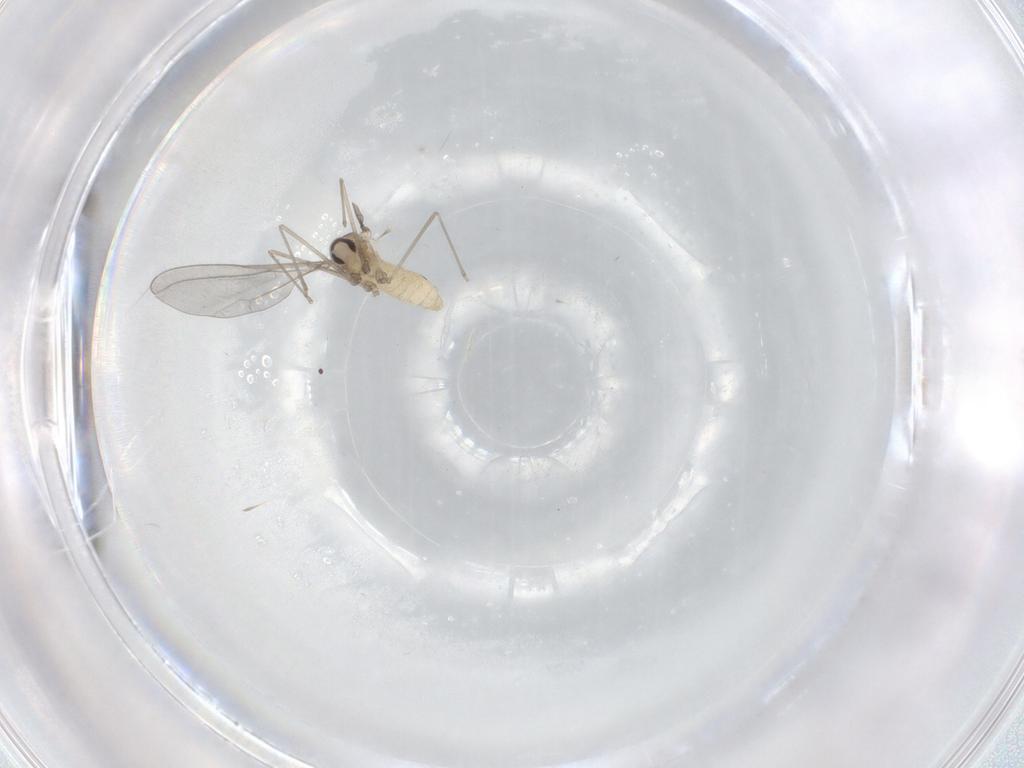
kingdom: Animalia
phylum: Arthropoda
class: Insecta
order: Diptera
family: Cecidomyiidae
